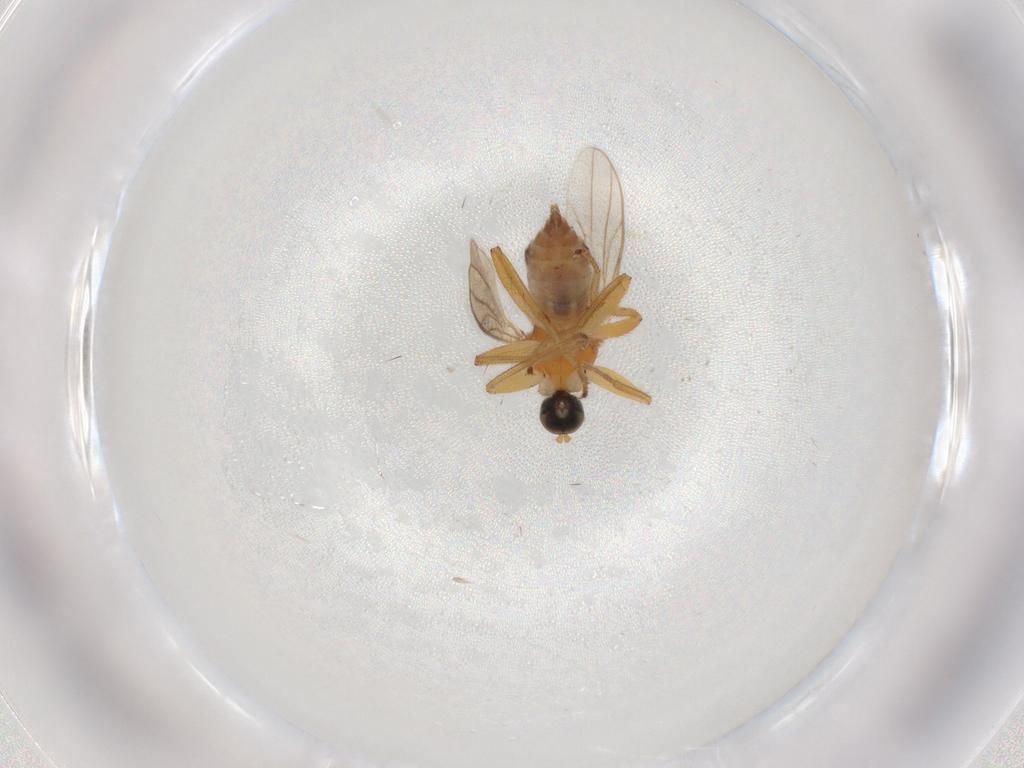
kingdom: Animalia
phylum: Arthropoda
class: Insecta
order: Diptera
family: Hybotidae
